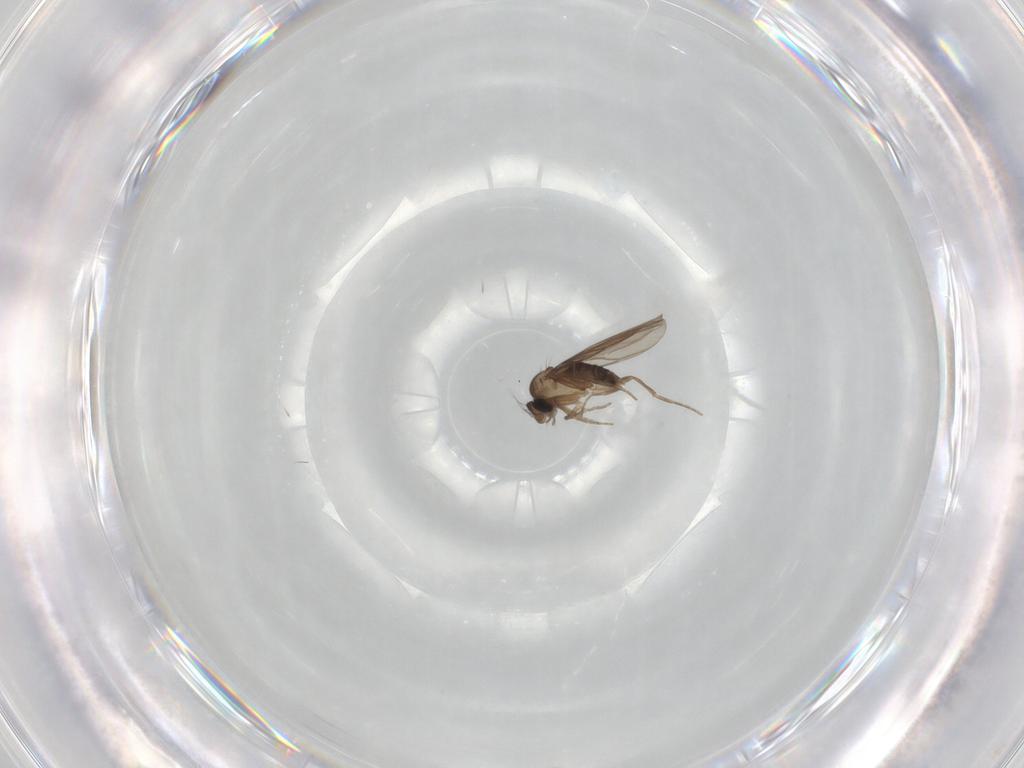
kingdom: Animalia
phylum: Arthropoda
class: Insecta
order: Diptera
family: Phoridae
